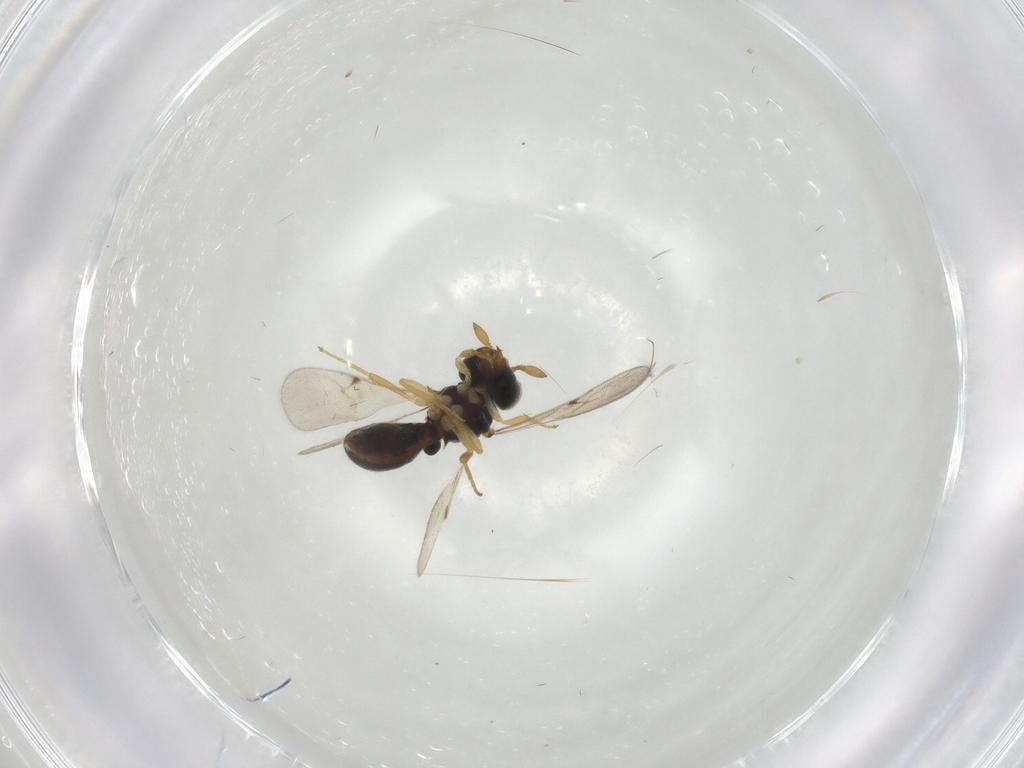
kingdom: Animalia
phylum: Arthropoda
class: Insecta
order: Hymenoptera
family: Scelionidae
